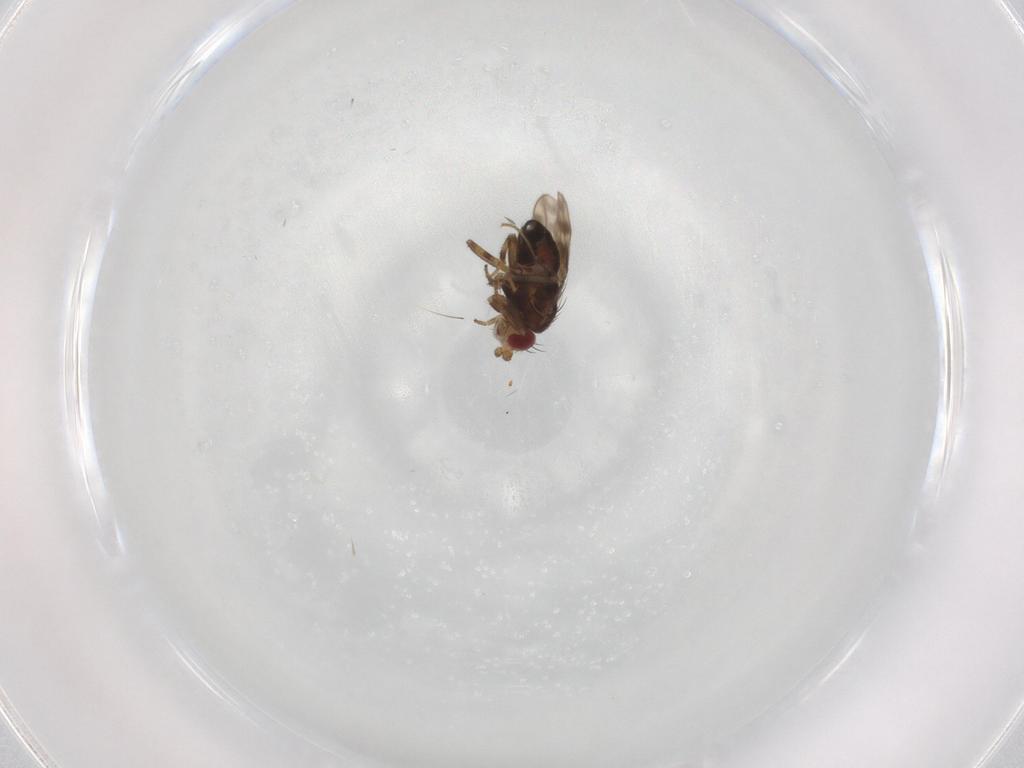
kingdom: Animalia
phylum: Arthropoda
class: Insecta
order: Diptera
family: Sphaeroceridae
